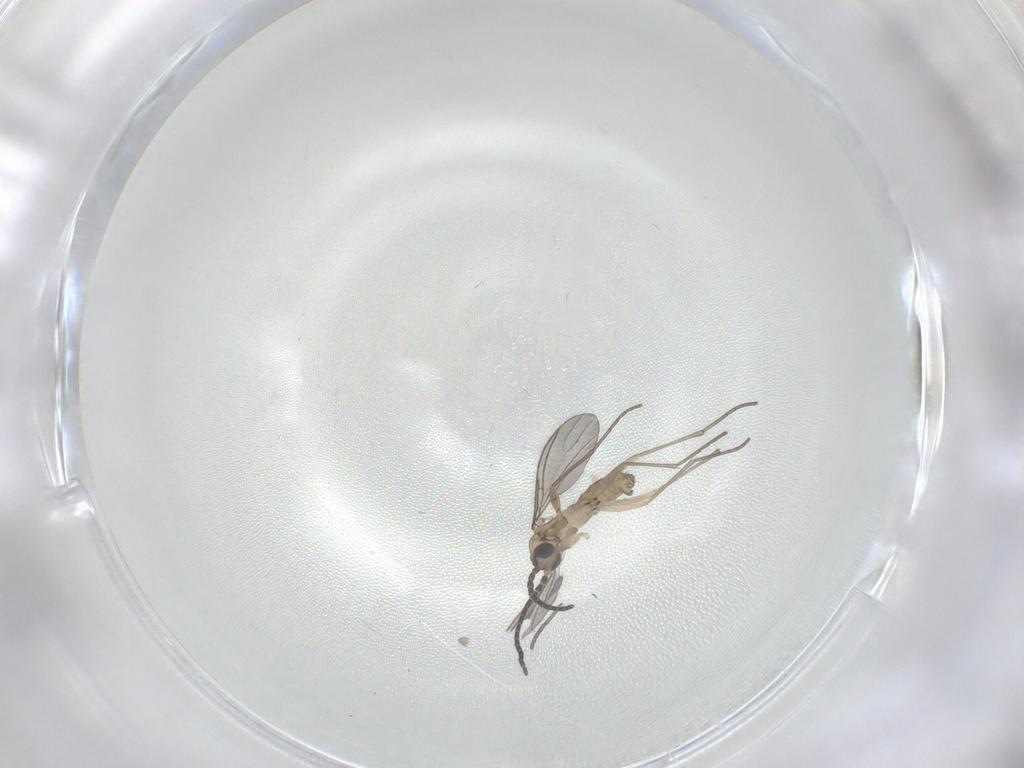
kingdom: Animalia
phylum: Arthropoda
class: Insecta
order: Diptera
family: Sciaridae
